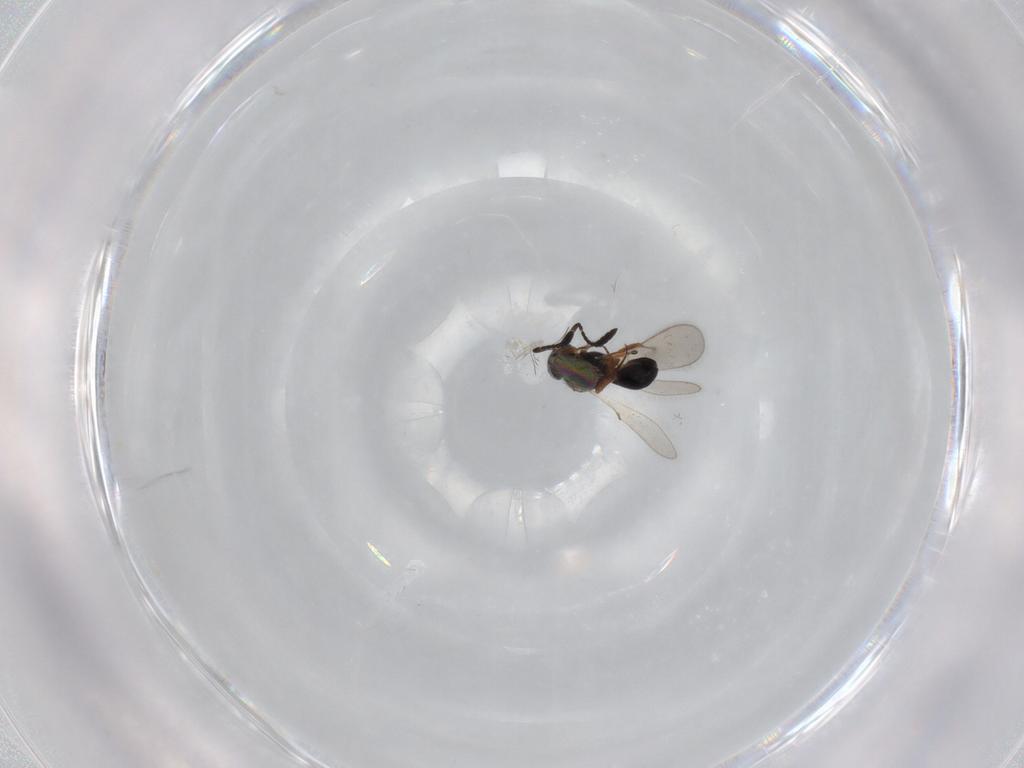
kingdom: Animalia
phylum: Arthropoda
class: Insecta
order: Hymenoptera
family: Scelionidae
